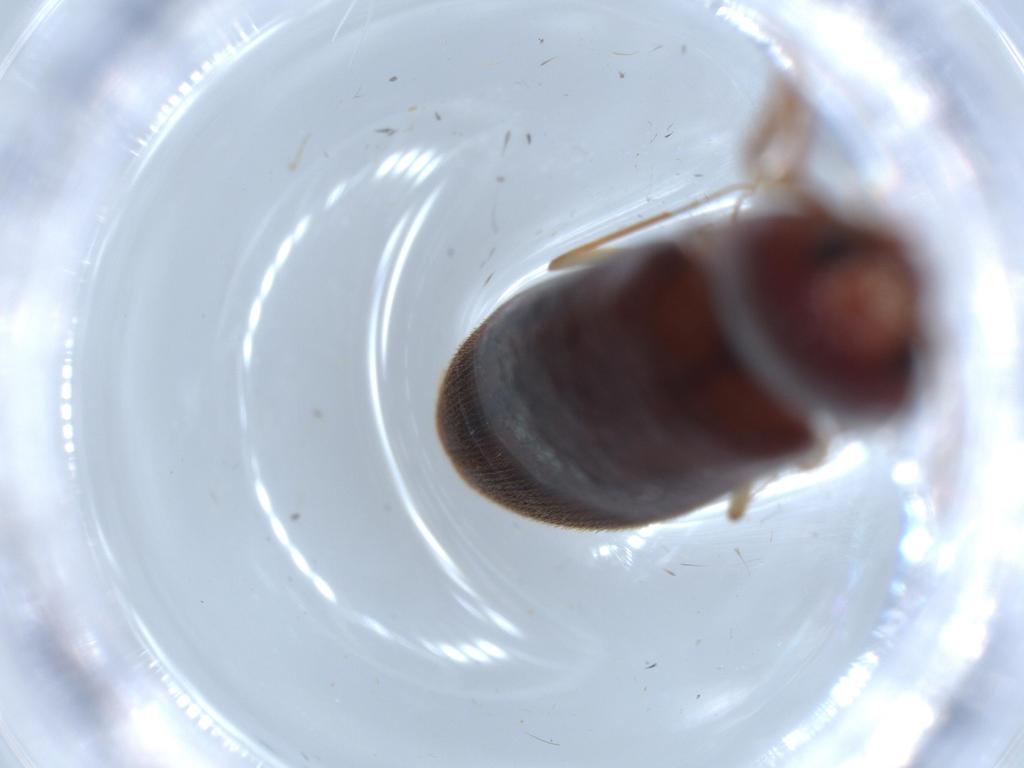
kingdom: Animalia
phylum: Arthropoda
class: Insecta
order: Coleoptera
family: Elateridae
